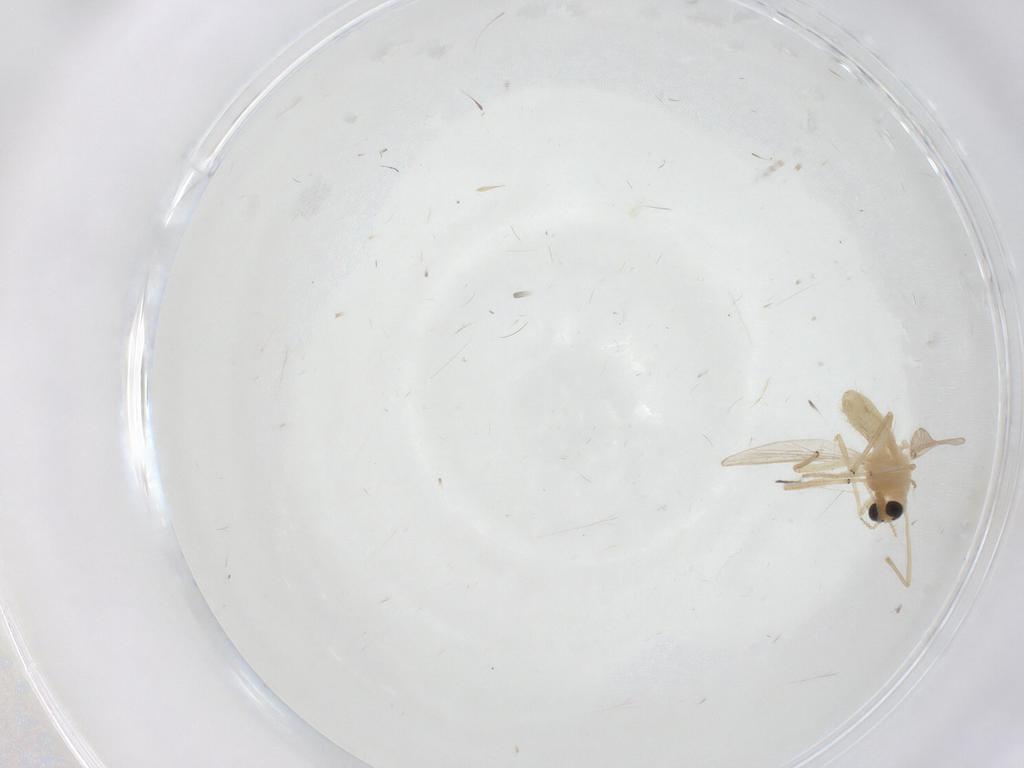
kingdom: Animalia
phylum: Arthropoda
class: Insecta
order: Diptera
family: Chironomidae
